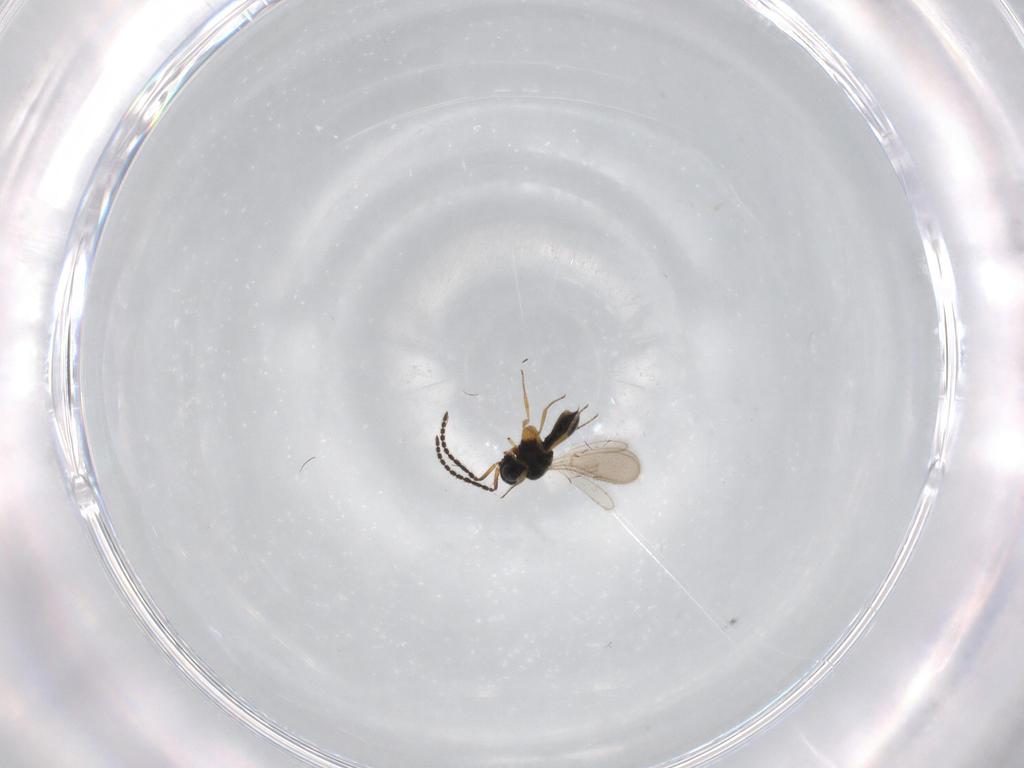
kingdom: Animalia
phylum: Arthropoda
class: Insecta
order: Hymenoptera
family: Scelionidae
